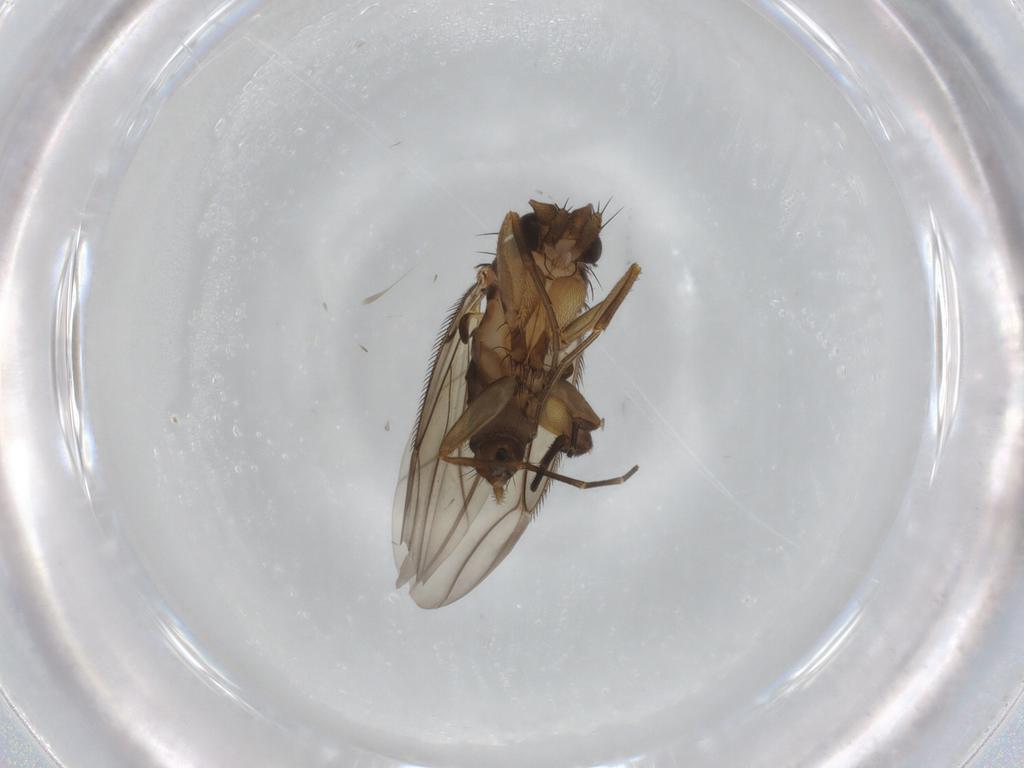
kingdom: Animalia
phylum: Arthropoda
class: Insecta
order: Diptera
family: Phoridae
